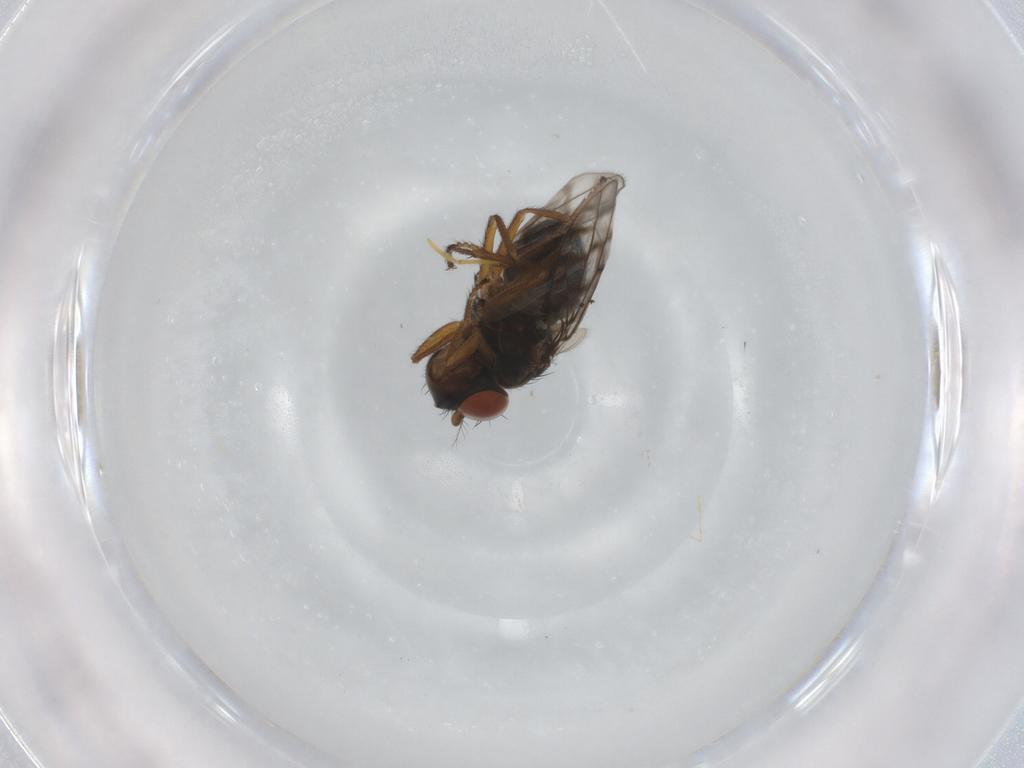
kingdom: Animalia
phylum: Arthropoda
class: Insecta
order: Diptera
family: Ephydridae
